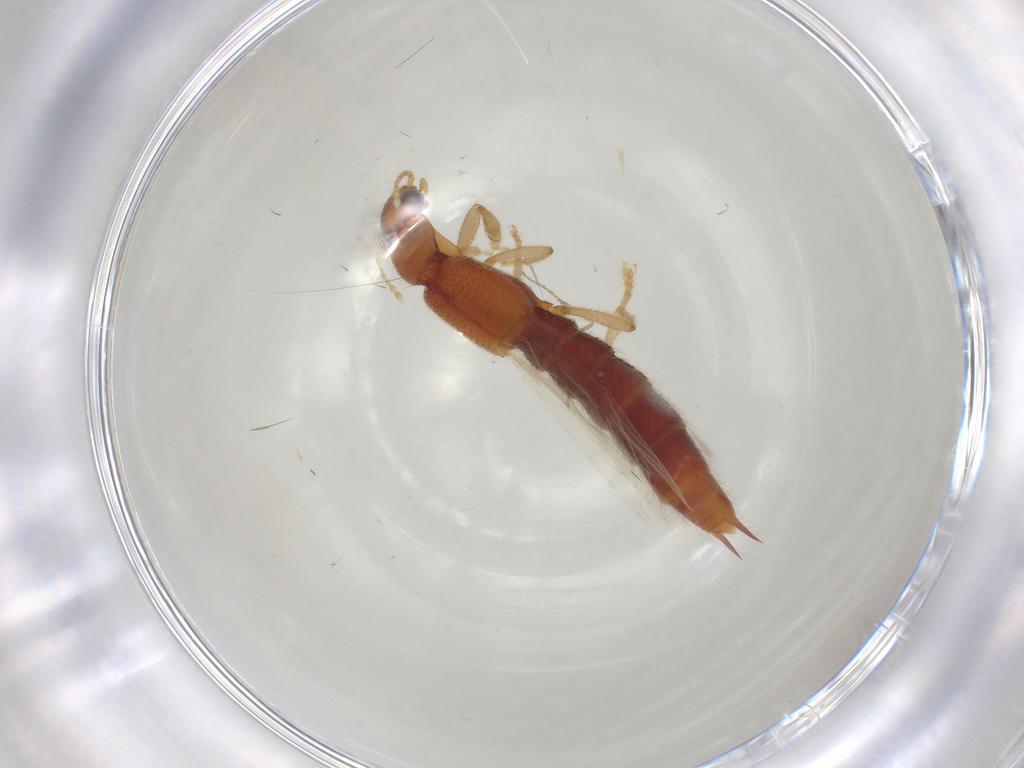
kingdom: Animalia
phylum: Arthropoda
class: Insecta
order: Coleoptera
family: Staphylinidae
